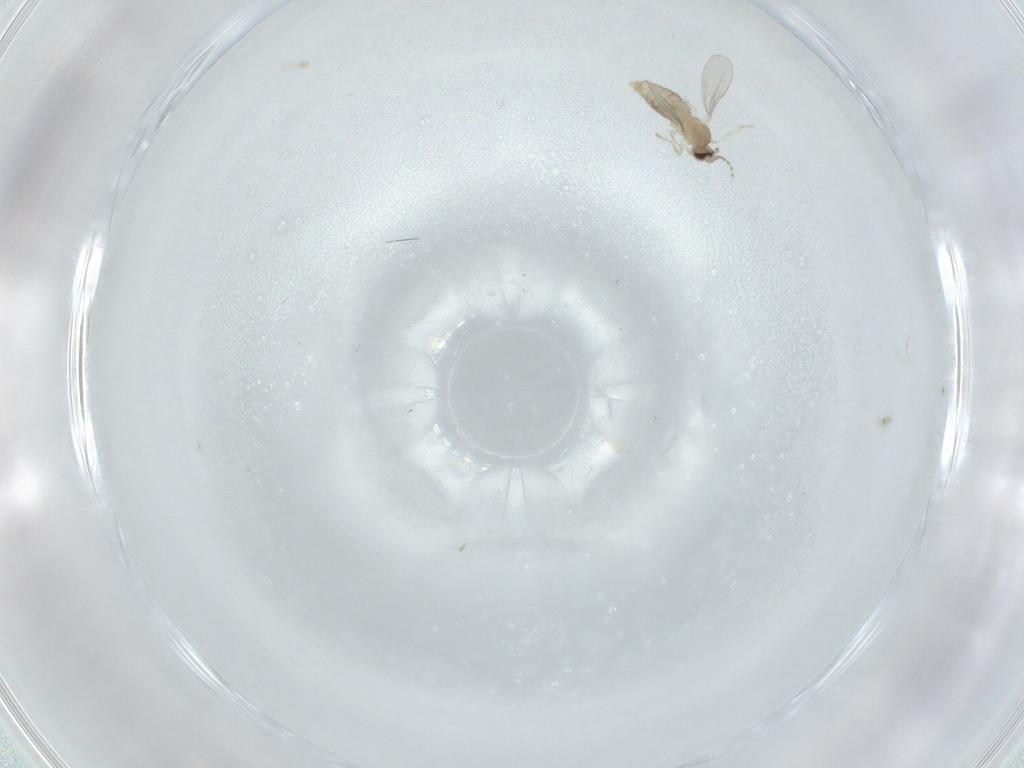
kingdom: Animalia
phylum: Arthropoda
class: Insecta
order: Diptera
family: Cecidomyiidae
